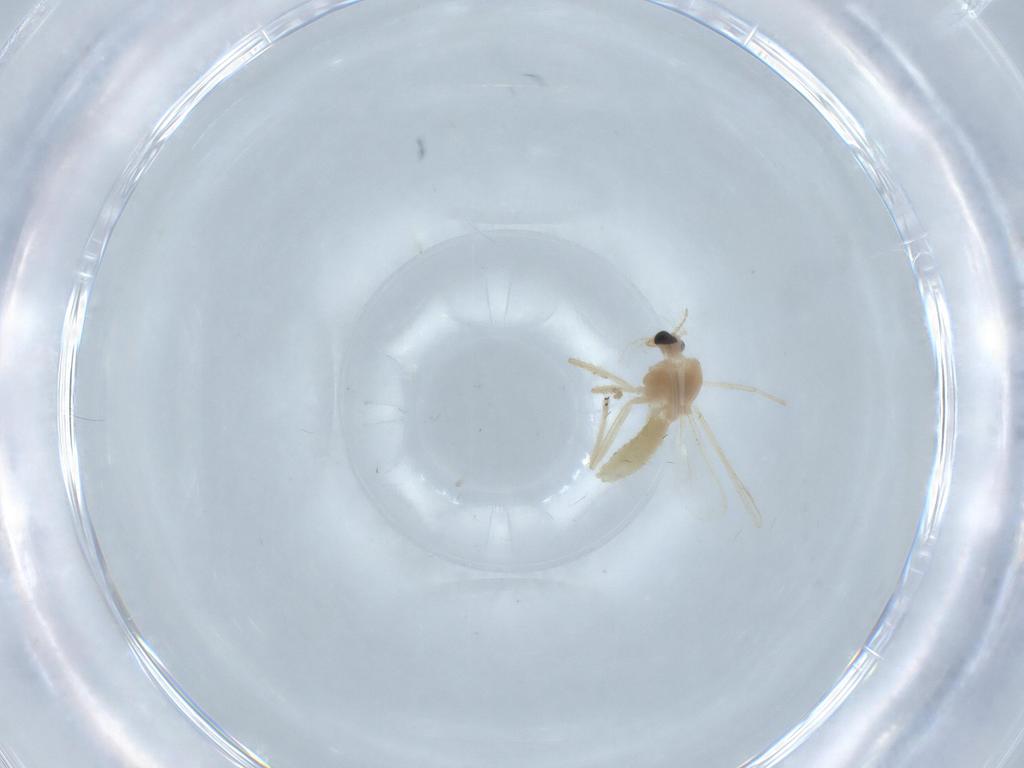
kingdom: Animalia
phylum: Arthropoda
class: Insecta
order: Diptera
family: Chironomidae
